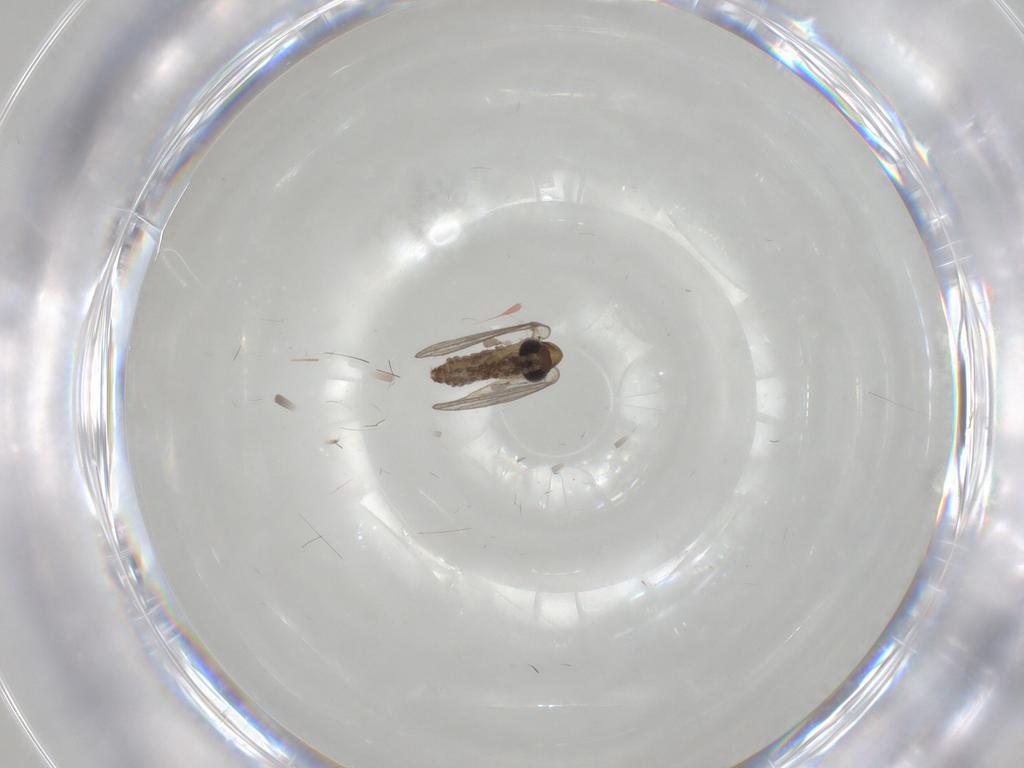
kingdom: Animalia
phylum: Arthropoda
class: Insecta
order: Diptera
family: Psychodidae
